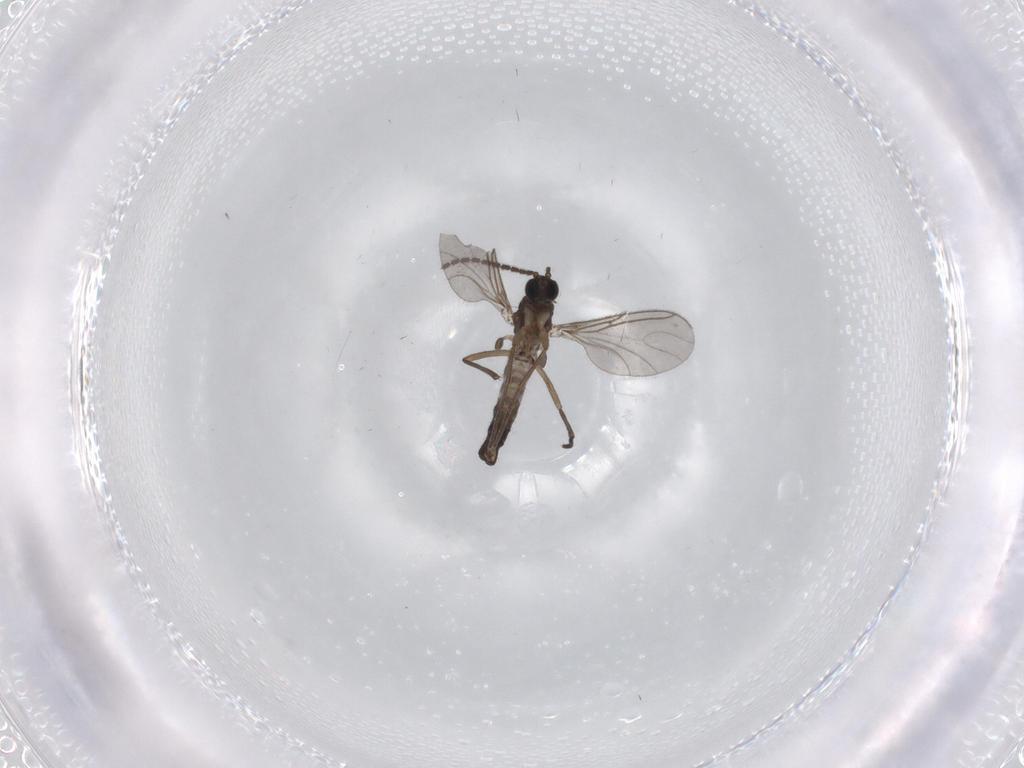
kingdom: Animalia
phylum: Arthropoda
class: Insecta
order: Diptera
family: Sciaridae
